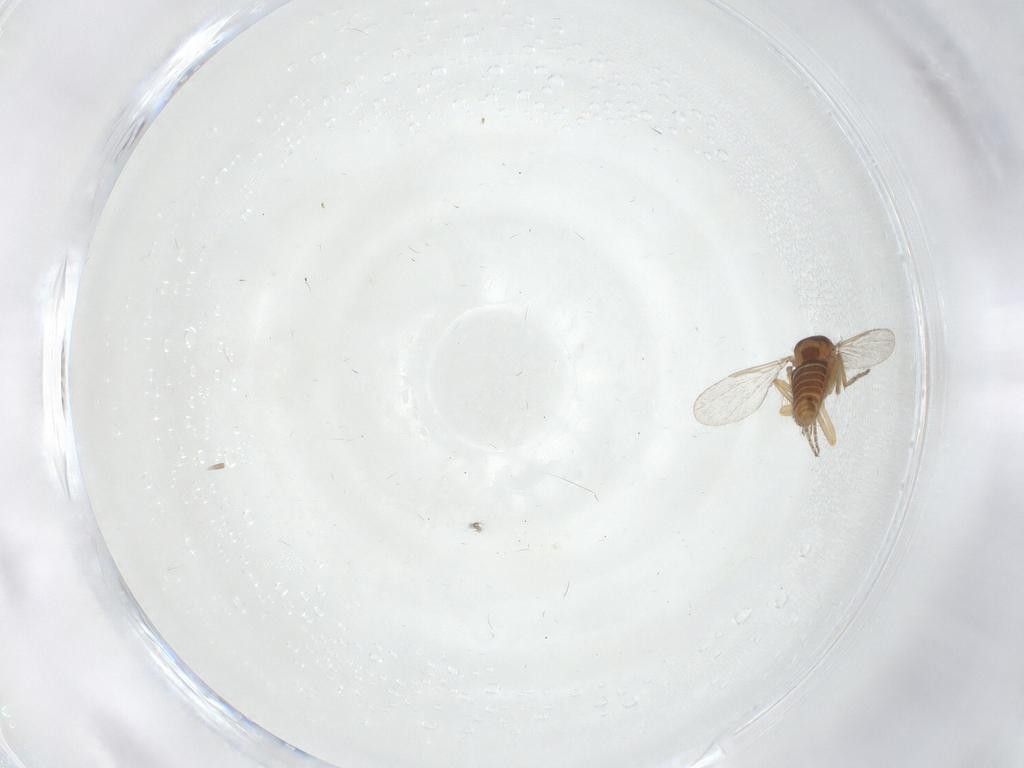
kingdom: Animalia
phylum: Arthropoda
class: Insecta
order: Diptera
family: Ceratopogonidae
